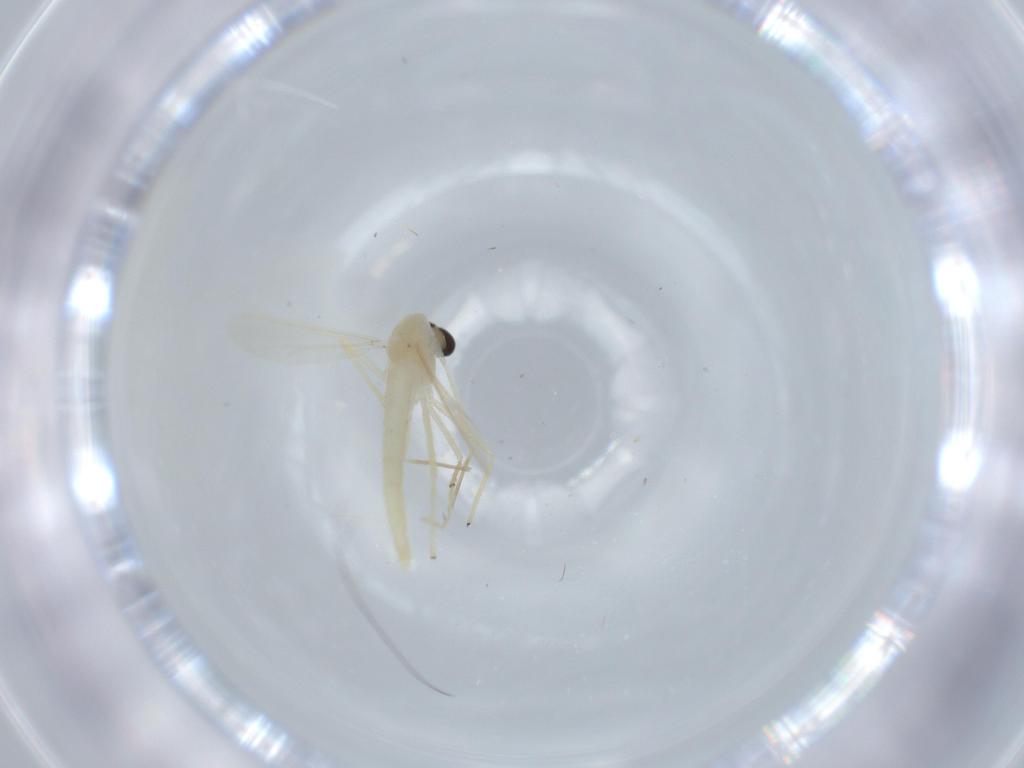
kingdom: Animalia
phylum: Arthropoda
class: Insecta
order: Diptera
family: Chironomidae
